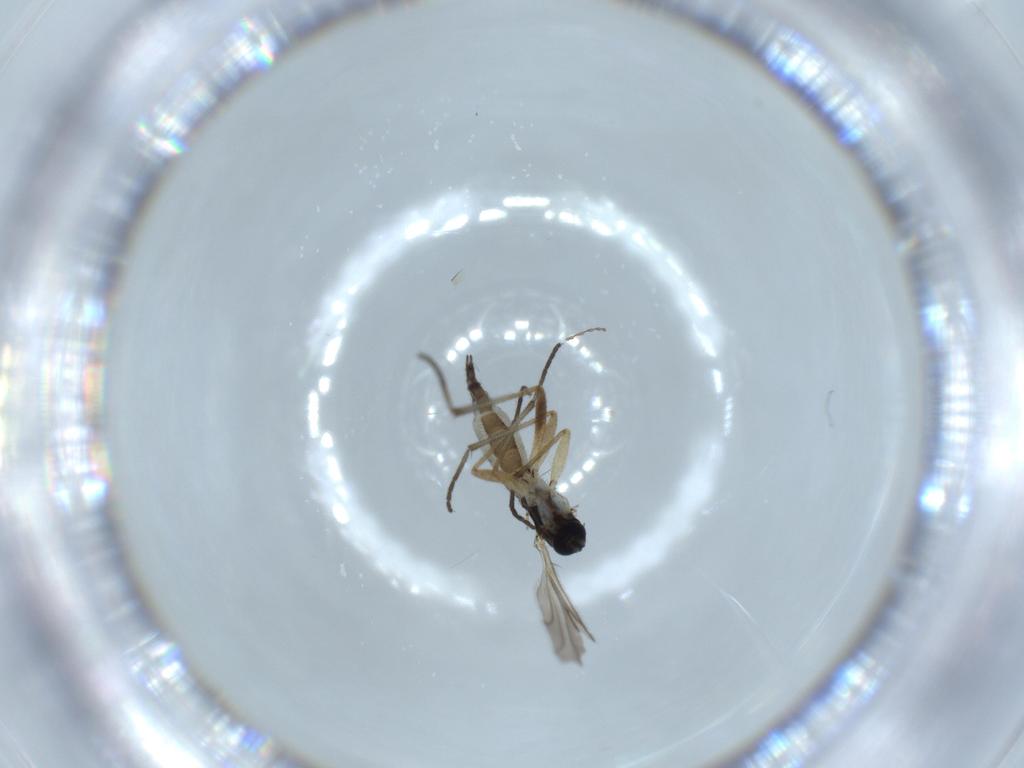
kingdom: Animalia
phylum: Arthropoda
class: Insecta
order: Diptera
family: Sciaridae
